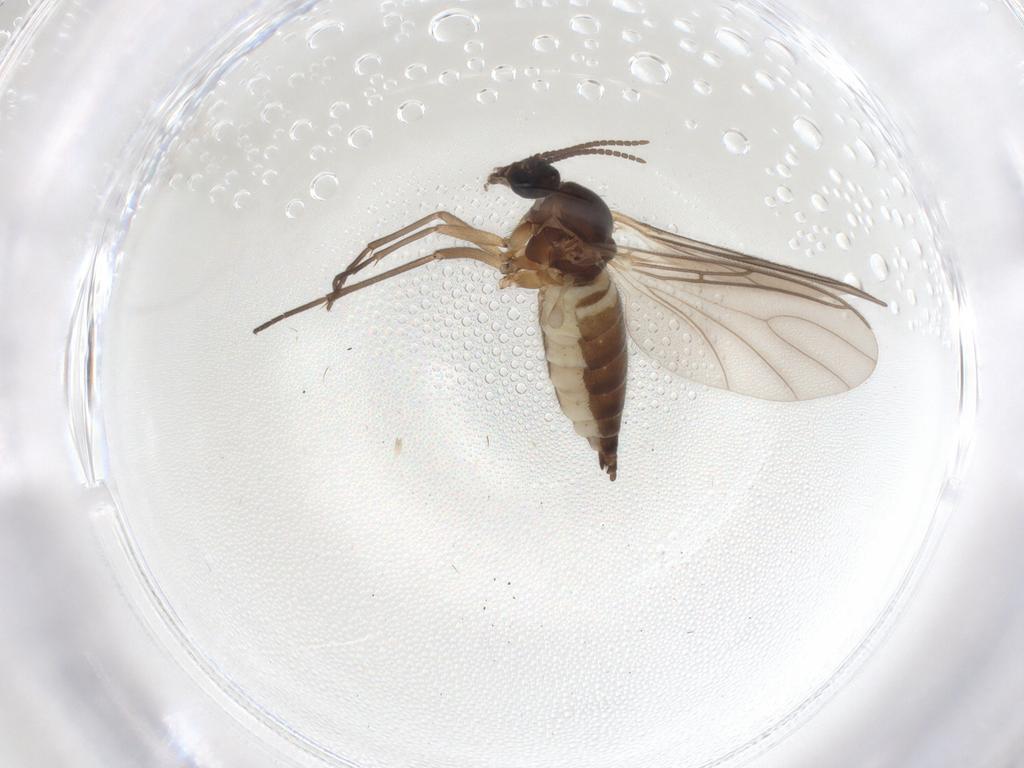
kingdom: Animalia
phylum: Arthropoda
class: Insecta
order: Diptera
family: Sciaridae
